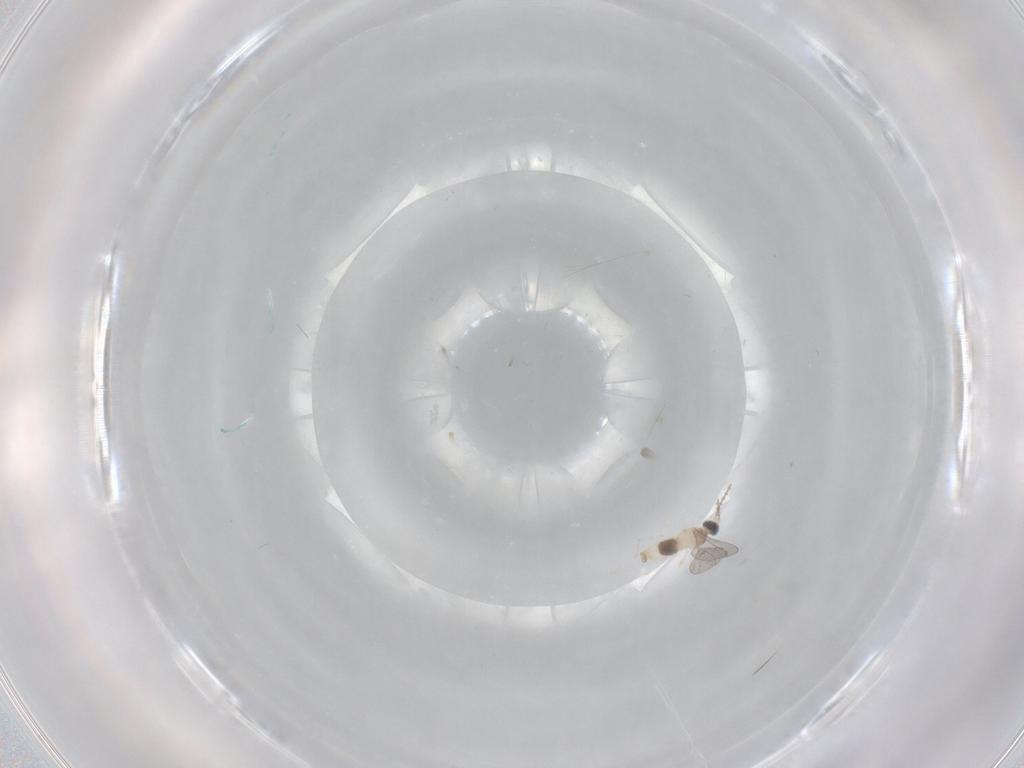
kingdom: Animalia
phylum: Arthropoda
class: Insecta
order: Diptera
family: Cecidomyiidae
